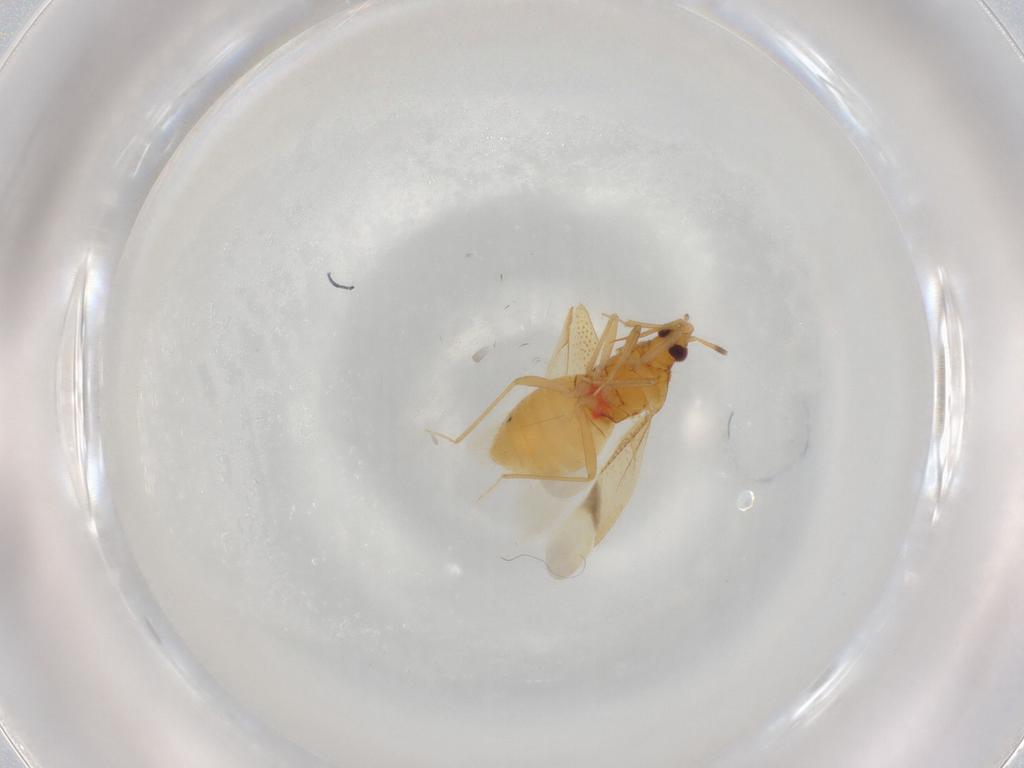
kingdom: Animalia
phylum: Arthropoda
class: Insecta
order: Hemiptera
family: Anthocoridae
